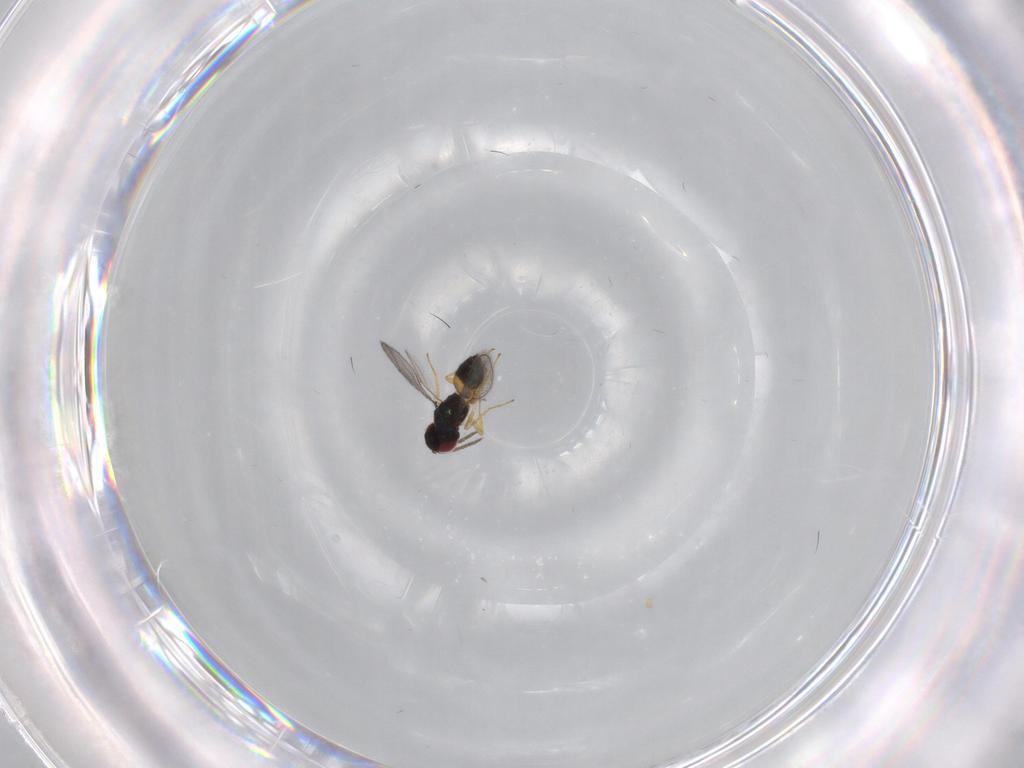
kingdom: Animalia
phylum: Arthropoda
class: Insecta
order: Hymenoptera
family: Eulophidae
